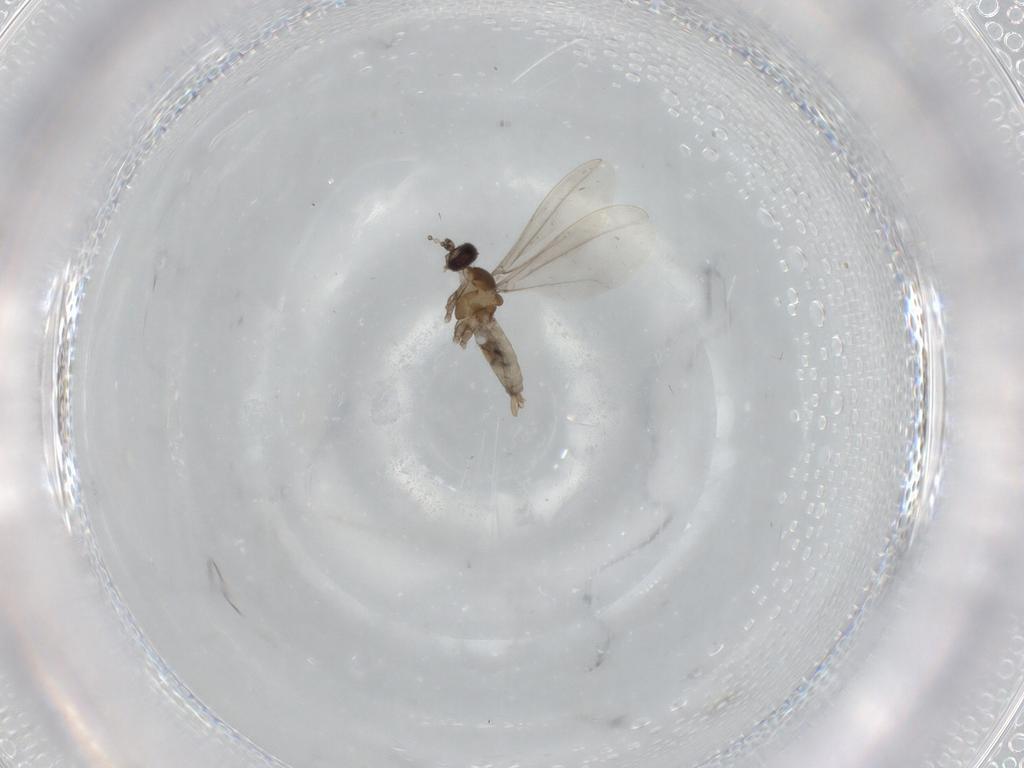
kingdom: Animalia
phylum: Arthropoda
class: Insecta
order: Diptera
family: Cecidomyiidae
